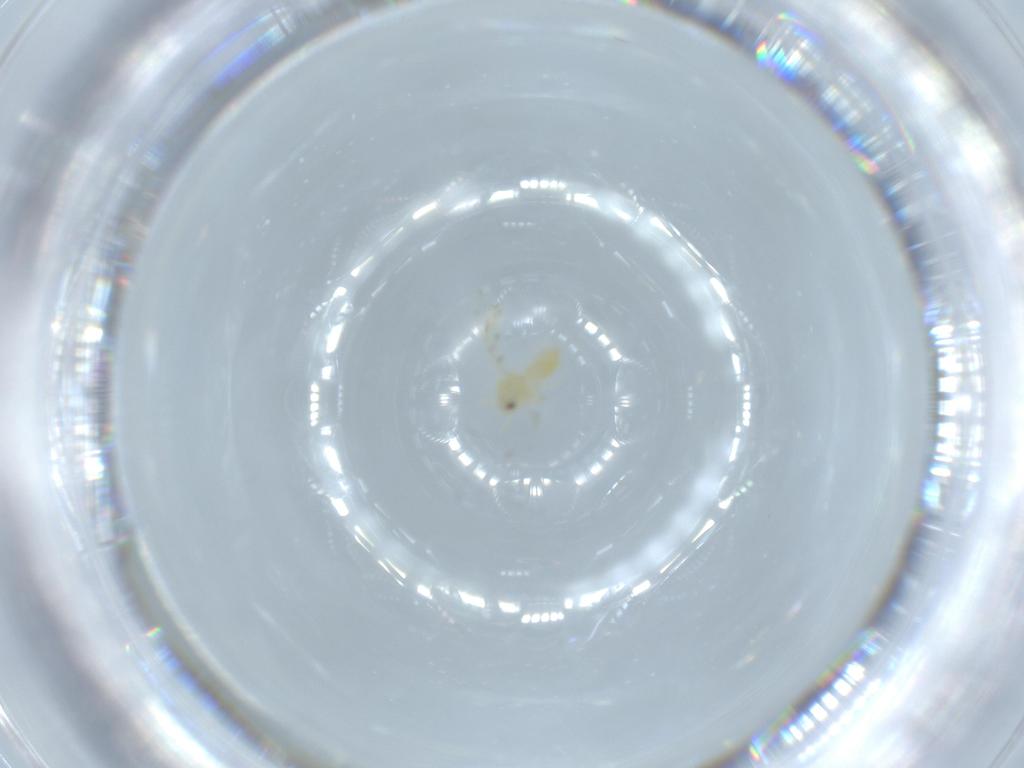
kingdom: Animalia
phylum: Arthropoda
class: Insecta
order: Hemiptera
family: Aleyrodidae
